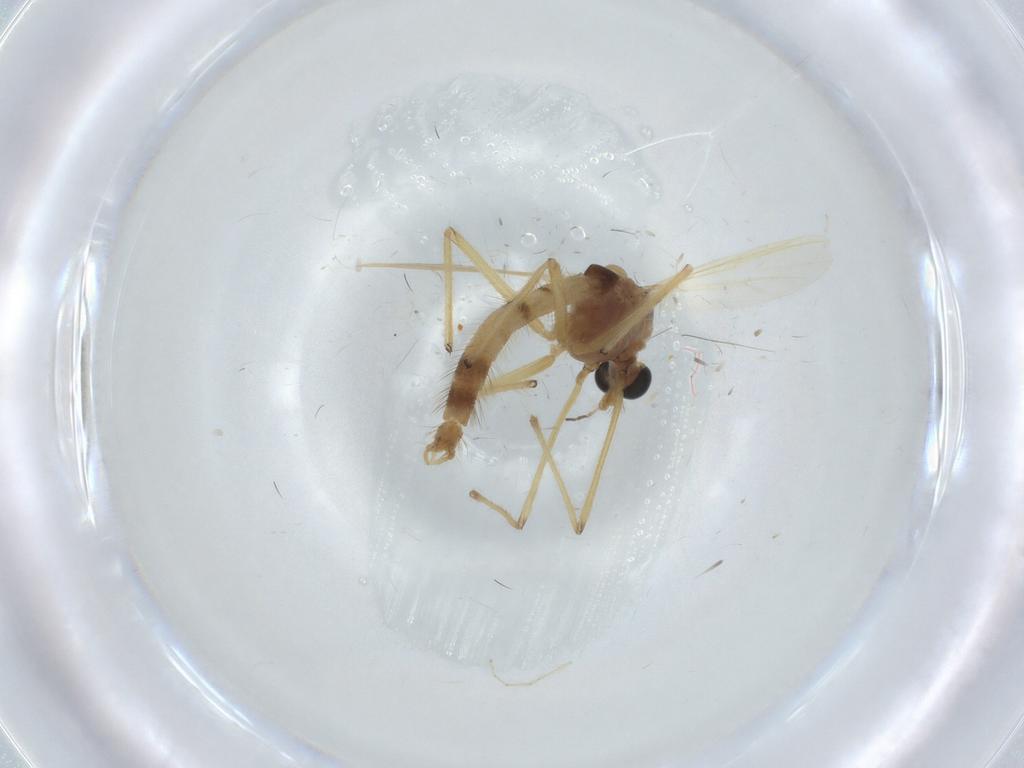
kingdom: Animalia
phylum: Arthropoda
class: Insecta
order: Diptera
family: Chironomidae
